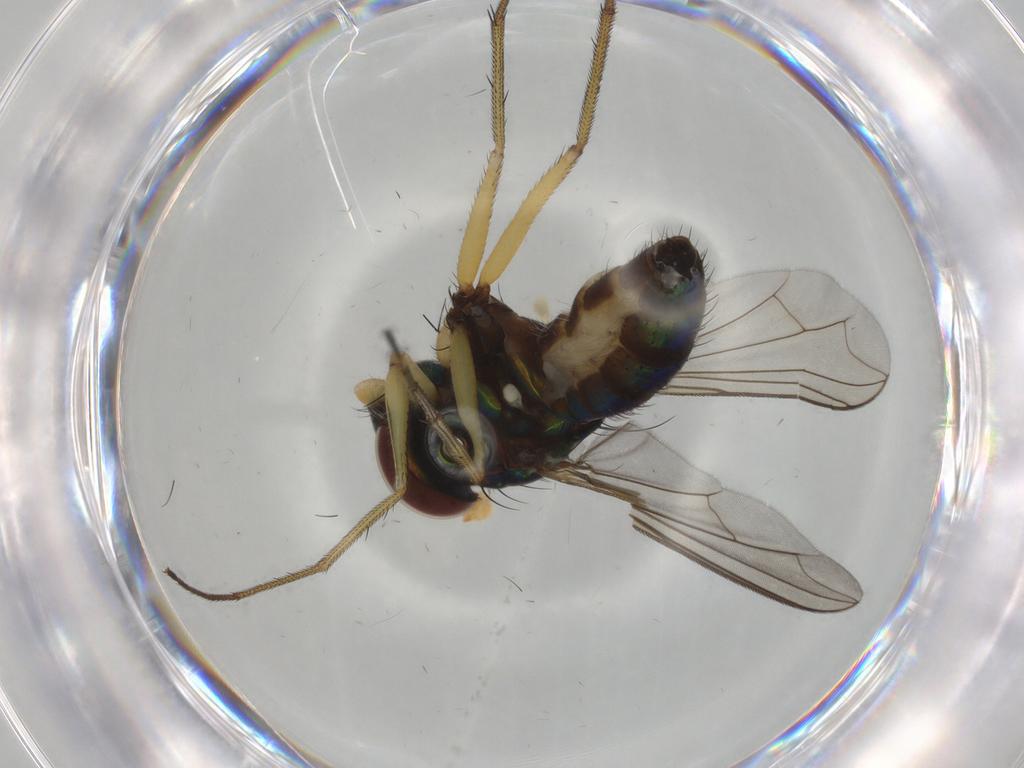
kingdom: Animalia
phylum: Arthropoda
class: Insecta
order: Diptera
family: Dolichopodidae
